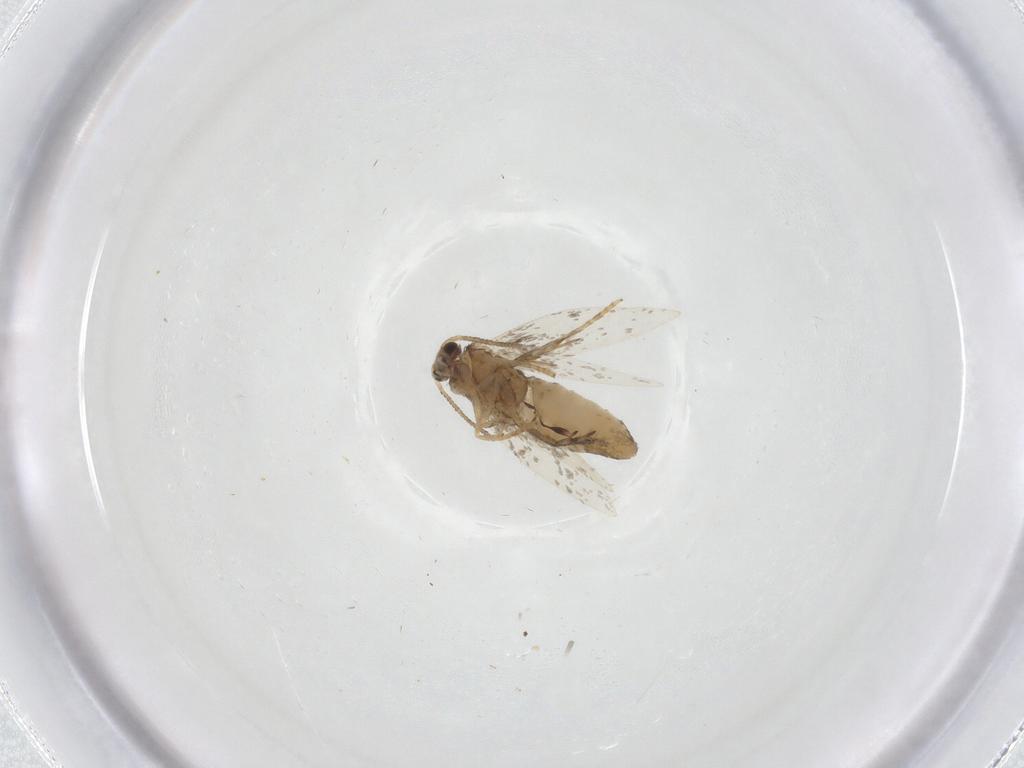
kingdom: Animalia
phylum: Arthropoda
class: Insecta
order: Lepidoptera
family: Nepticulidae
